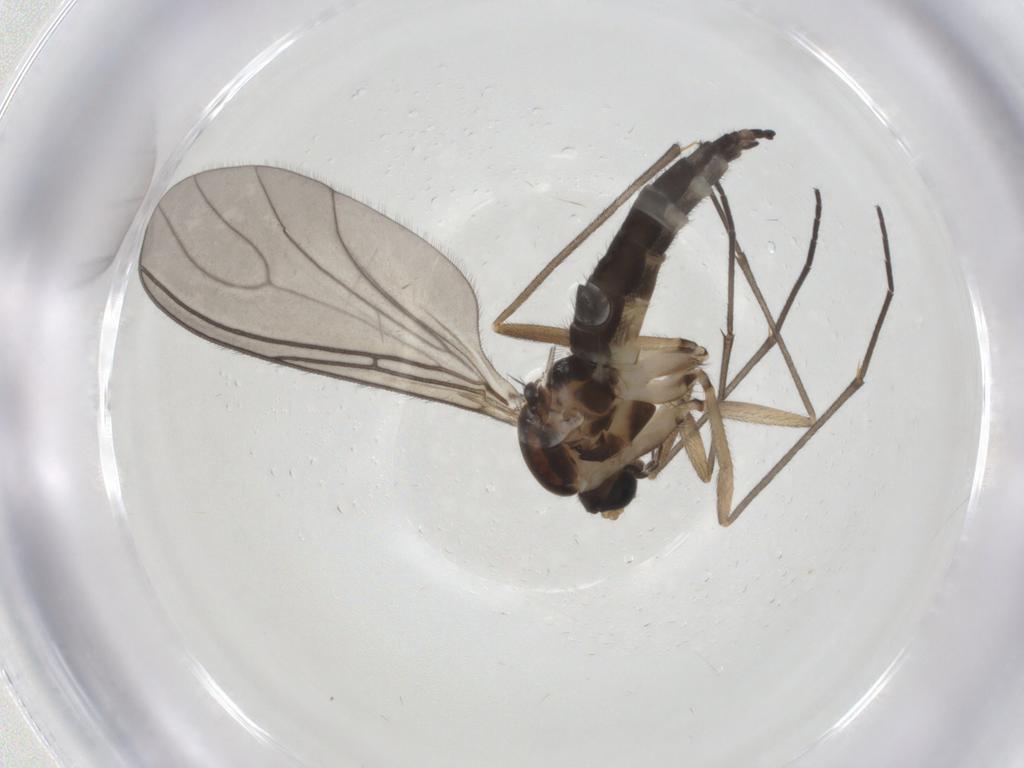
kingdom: Animalia
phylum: Arthropoda
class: Insecta
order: Diptera
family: Sciaridae
